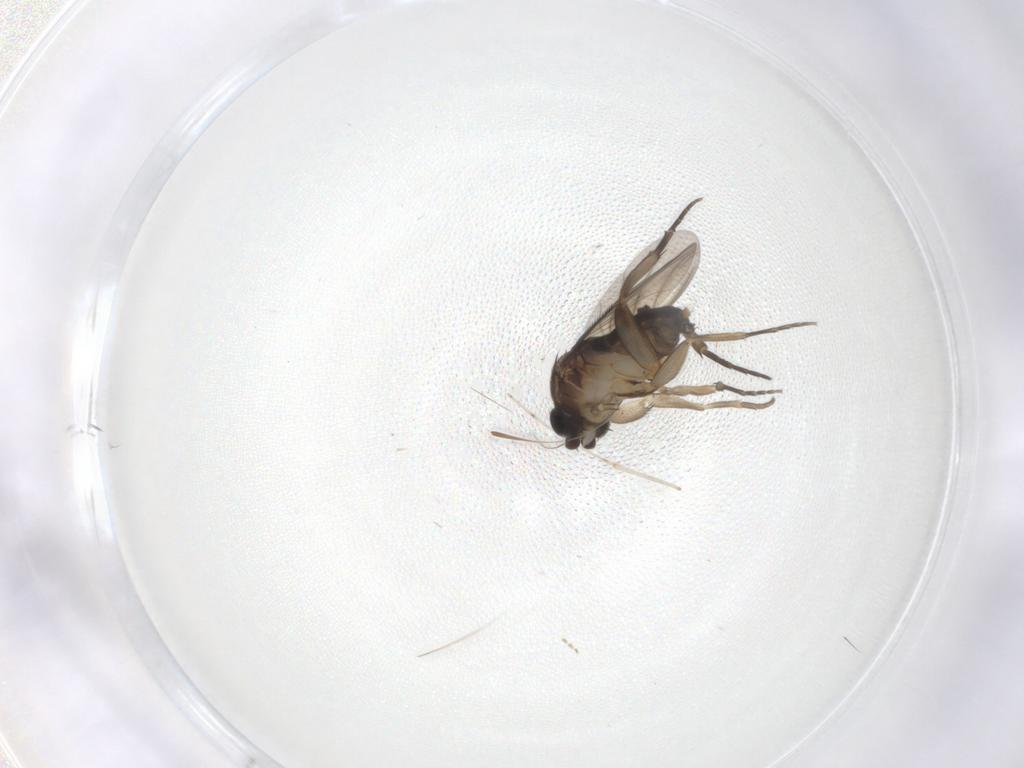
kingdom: Animalia
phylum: Arthropoda
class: Insecta
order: Diptera
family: Phoridae
